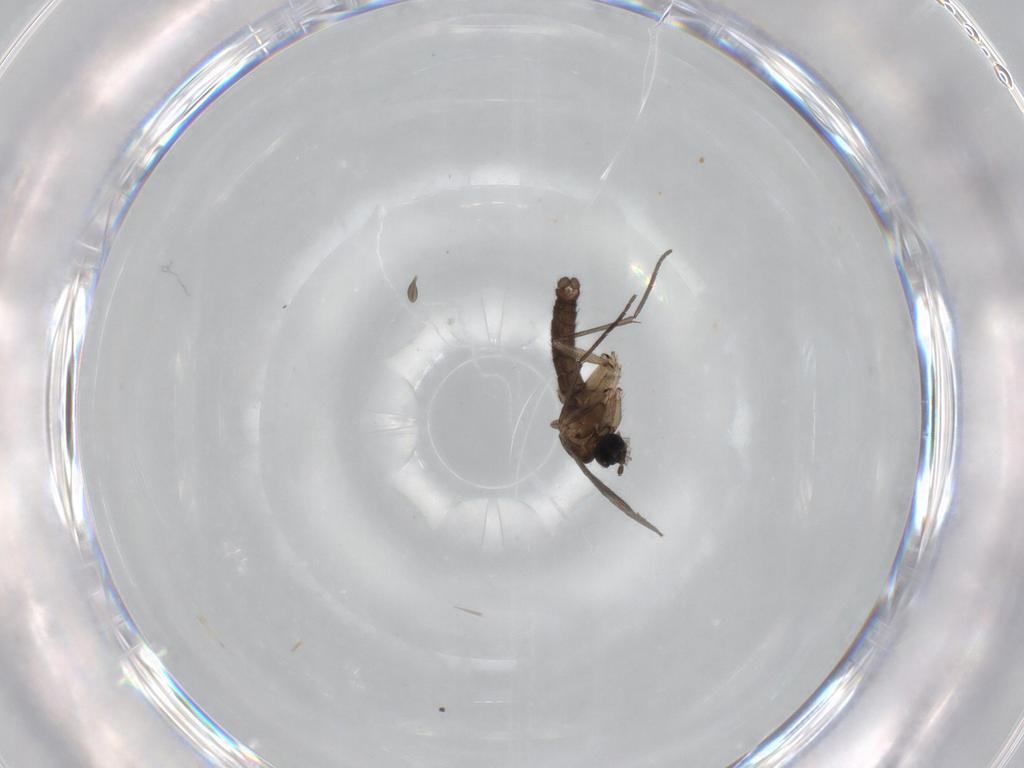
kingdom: Animalia
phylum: Arthropoda
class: Insecta
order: Diptera
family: Sciaridae
